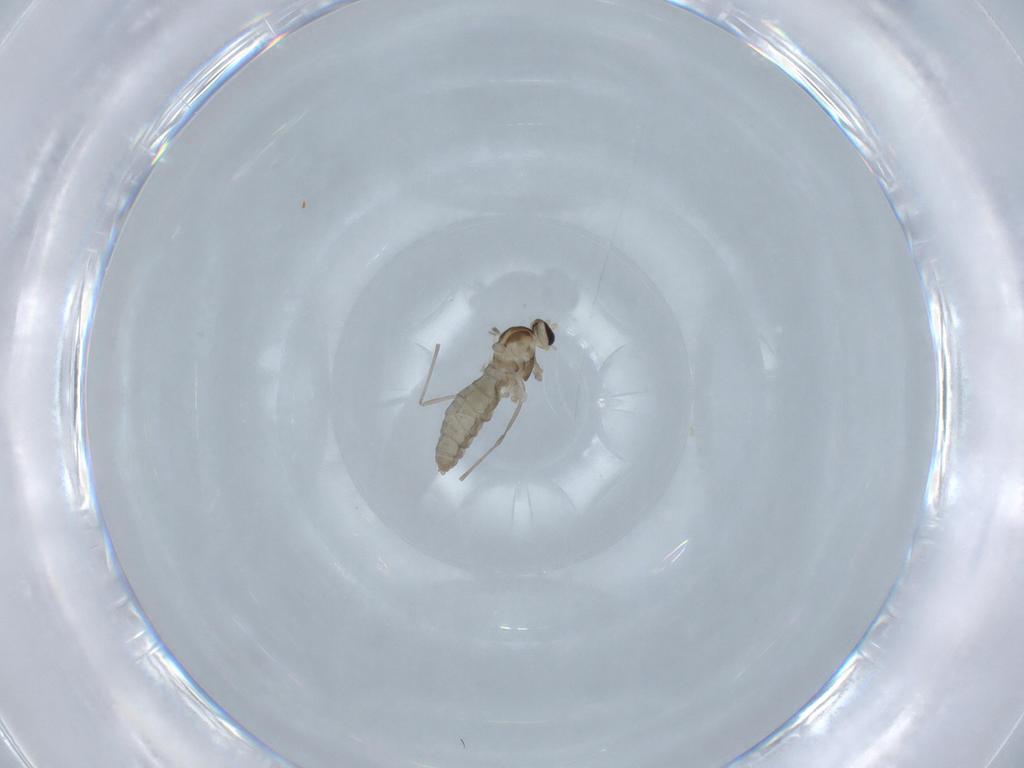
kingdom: Animalia
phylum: Arthropoda
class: Insecta
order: Diptera
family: Cecidomyiidae
